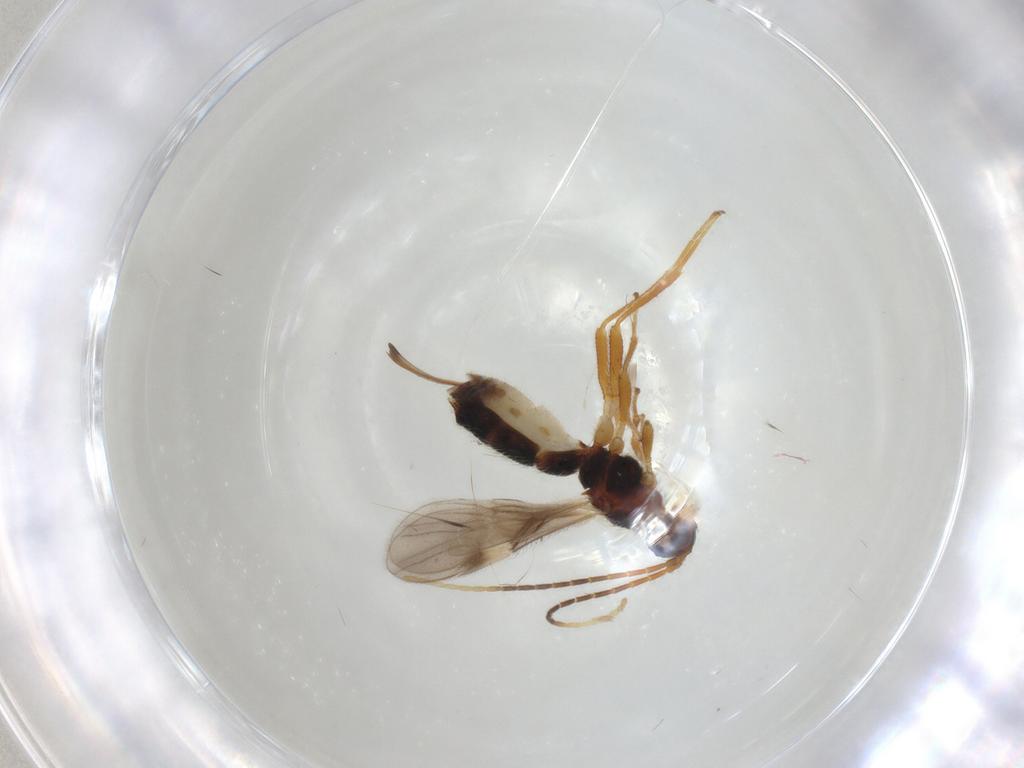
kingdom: Animalia
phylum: Arthropoda
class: Insecta
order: Hymenoptera
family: Braconidae
